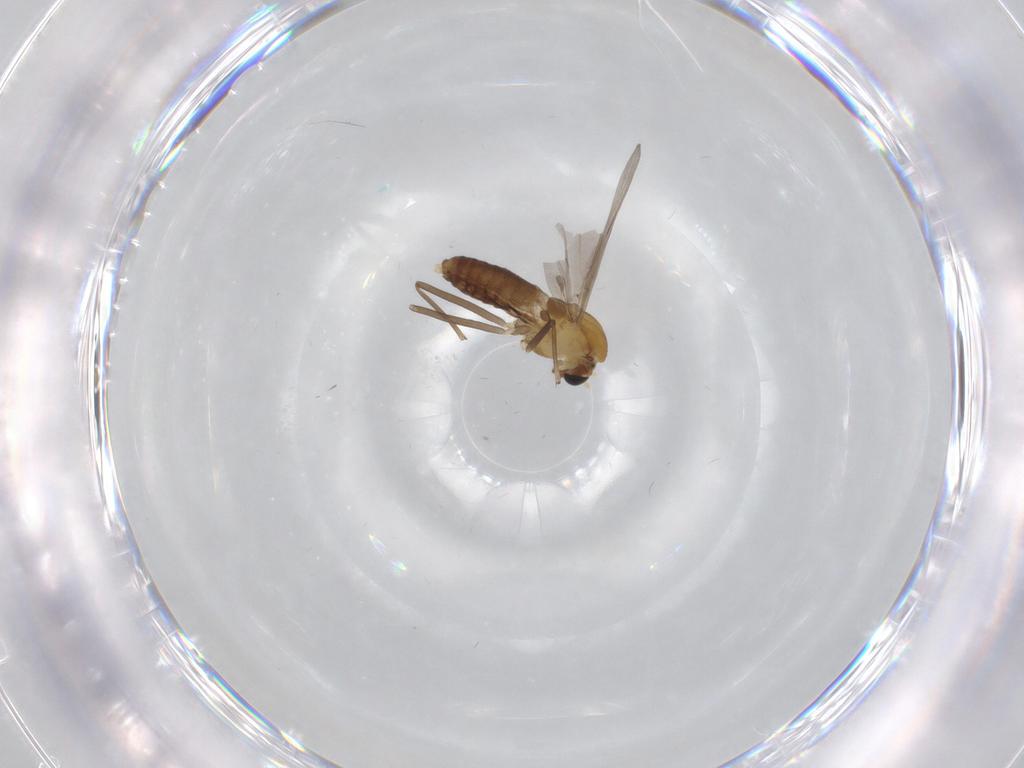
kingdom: Animalia
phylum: Arthropoda
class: Insecta
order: Diptera
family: Chironomidae
